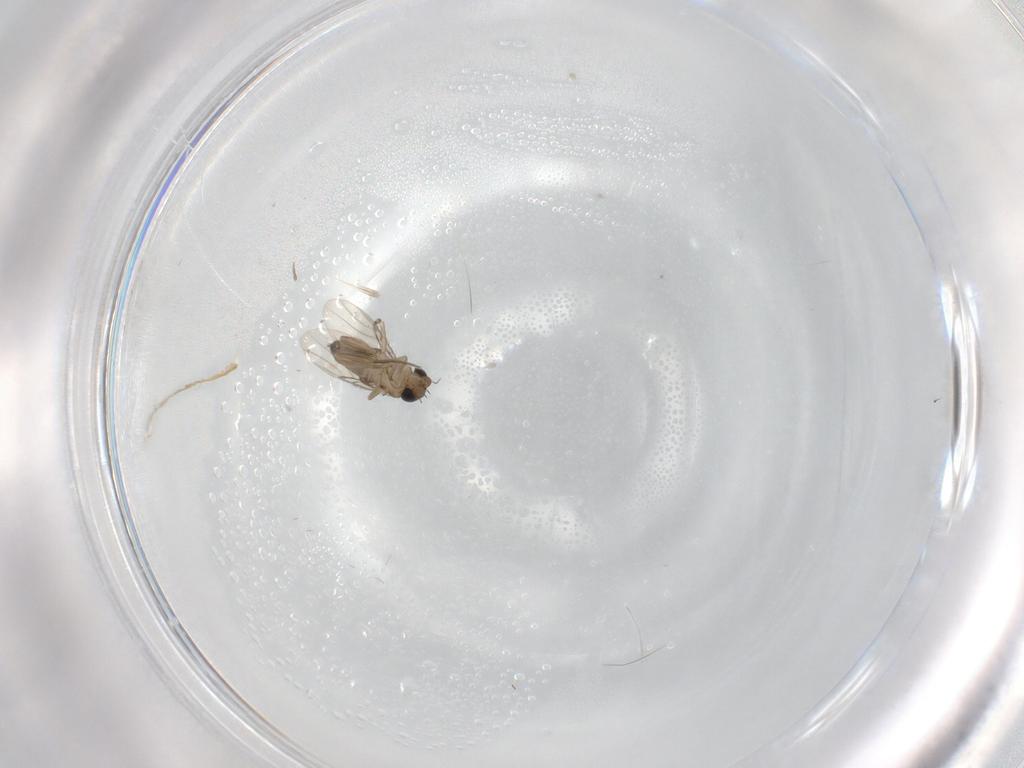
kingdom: Animalia
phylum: Arthropoda
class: Insecta
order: Diptera
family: Phoridae
